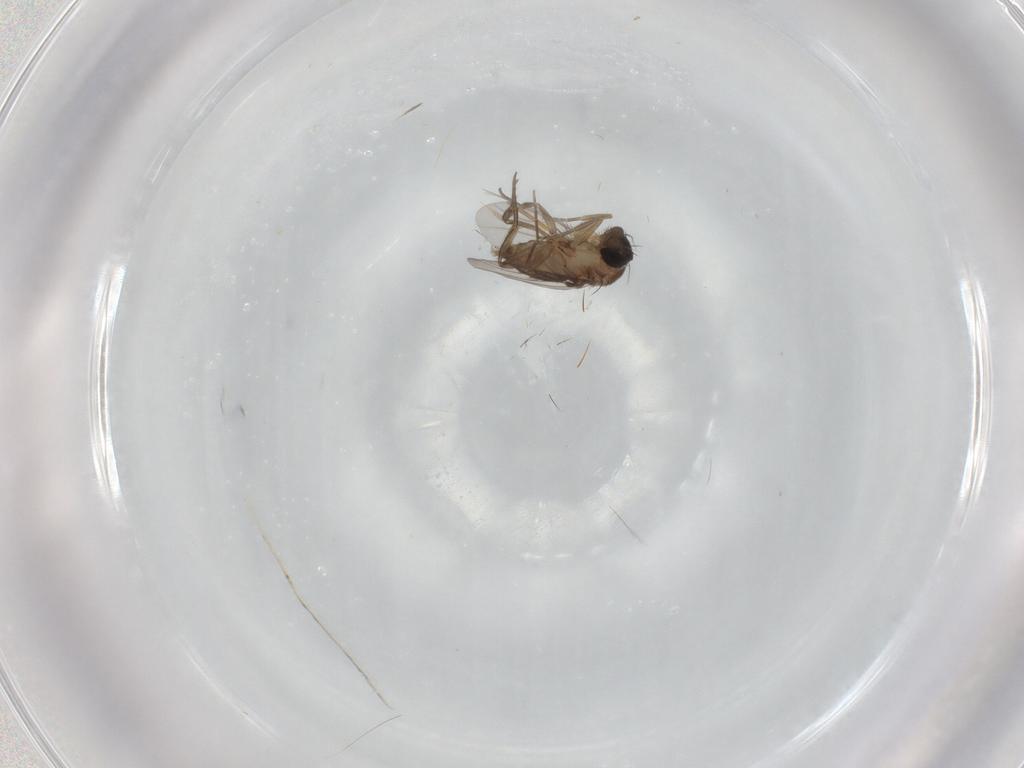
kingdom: Animalia
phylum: Arthropoda
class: Insecta
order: Diptera
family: Phoridae
